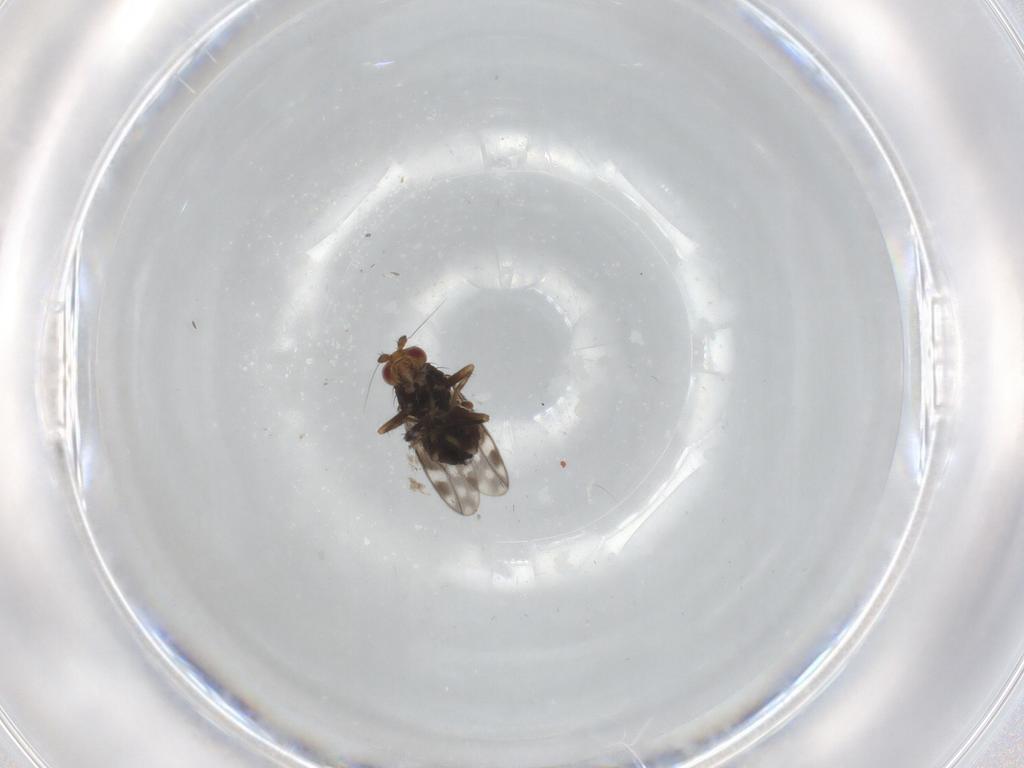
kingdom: Animalia
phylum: Arthropoda
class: Insecta
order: Diptera
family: Sphaeroceridae
